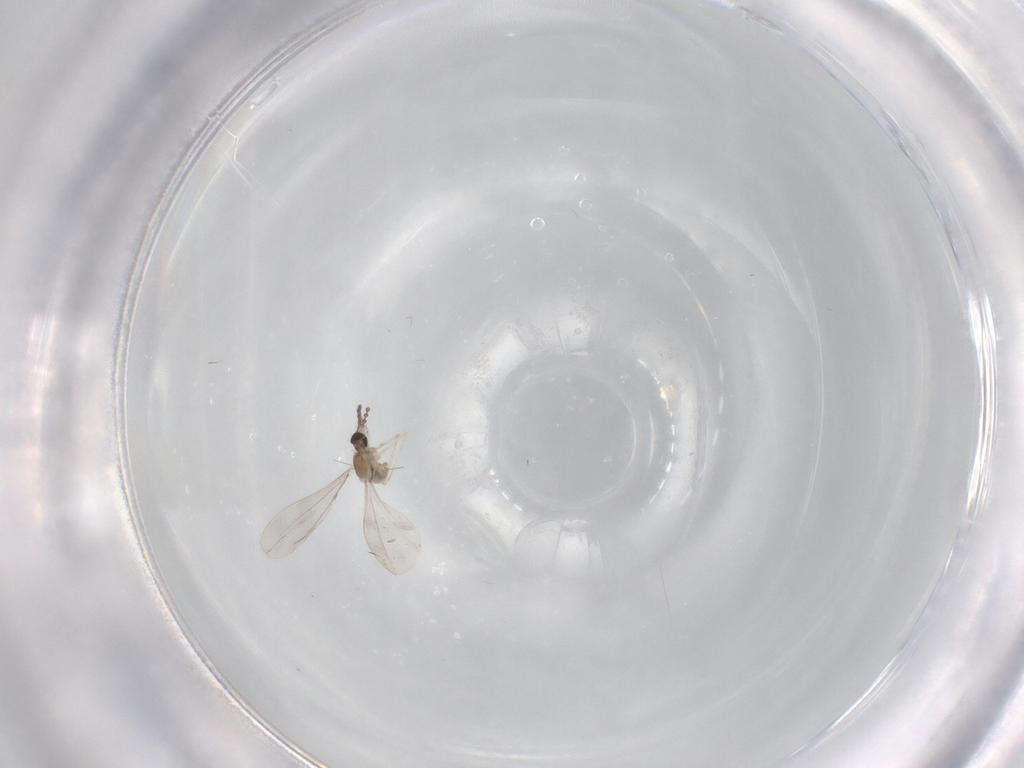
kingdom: Animalia
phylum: Arthropoda
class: Insecta
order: Diptera
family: Cecidomyiidae
